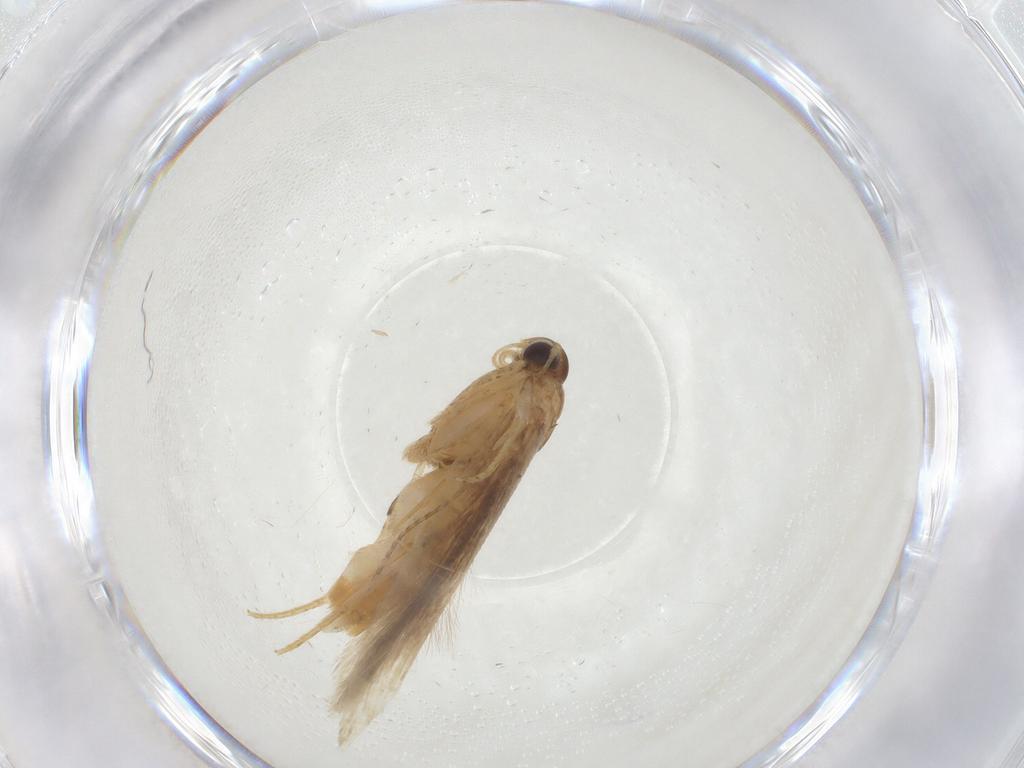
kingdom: Animalia
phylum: Arthropoda
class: Insecta
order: Lepidoptera
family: Gelechiidae
